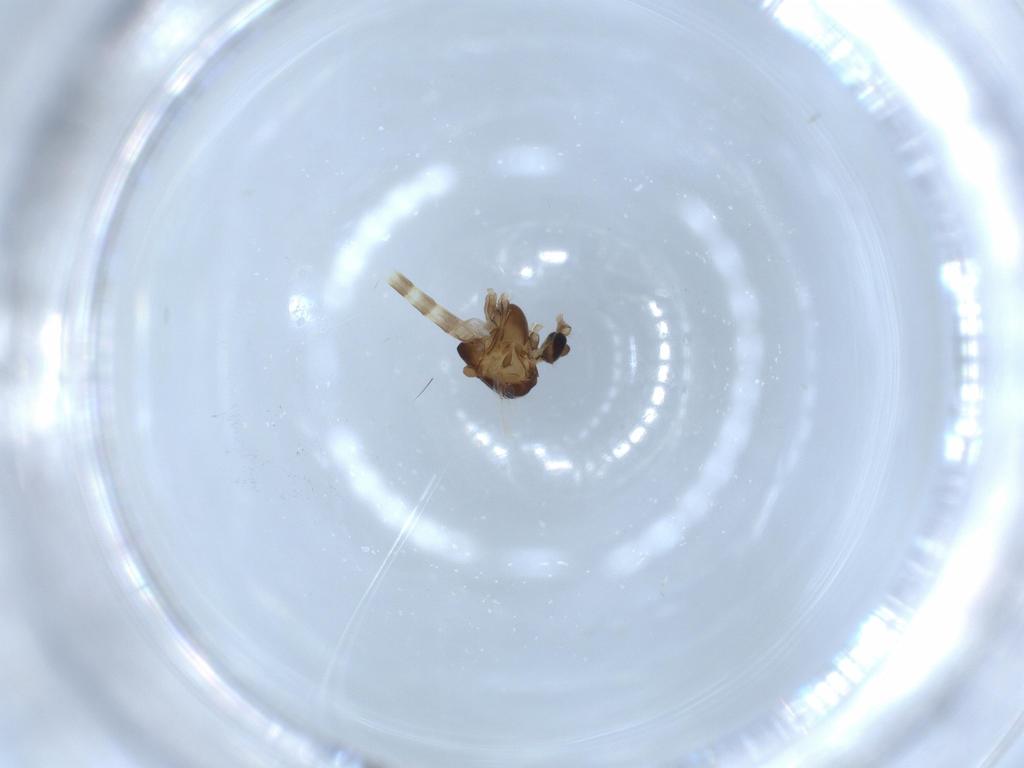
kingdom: Animalia
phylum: Arthropoda
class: Insecta
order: Diptera
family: Chironomidae
